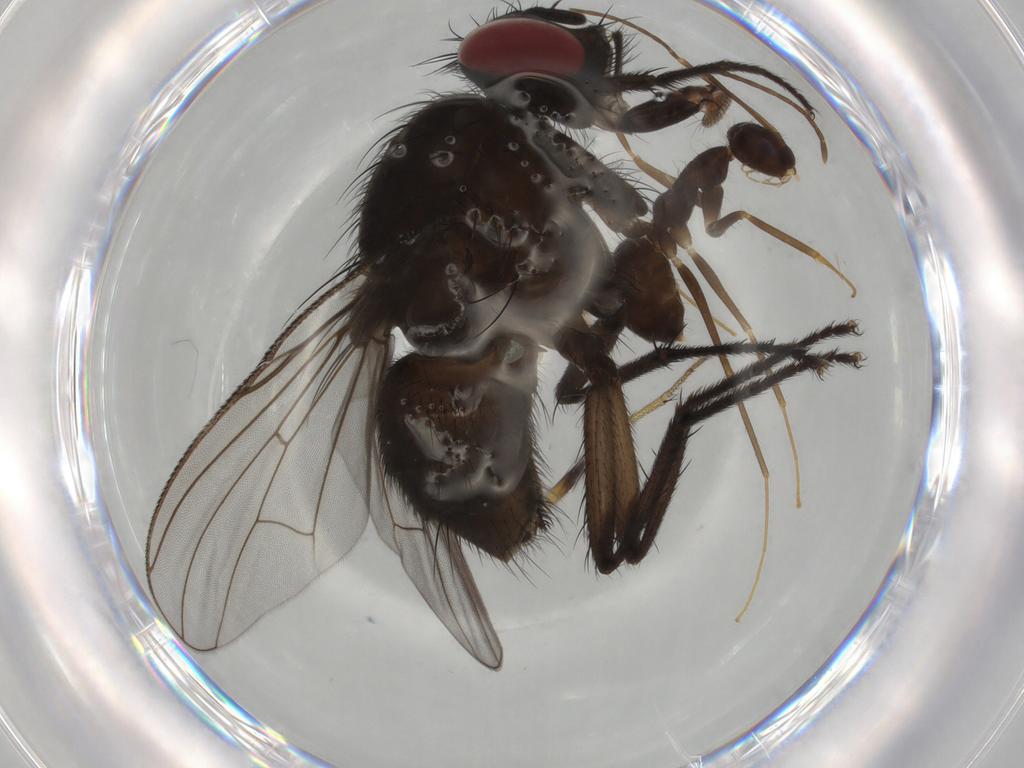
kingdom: Animalia
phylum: Arthropoda
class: Insecta
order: Diptera
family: Muscidae
